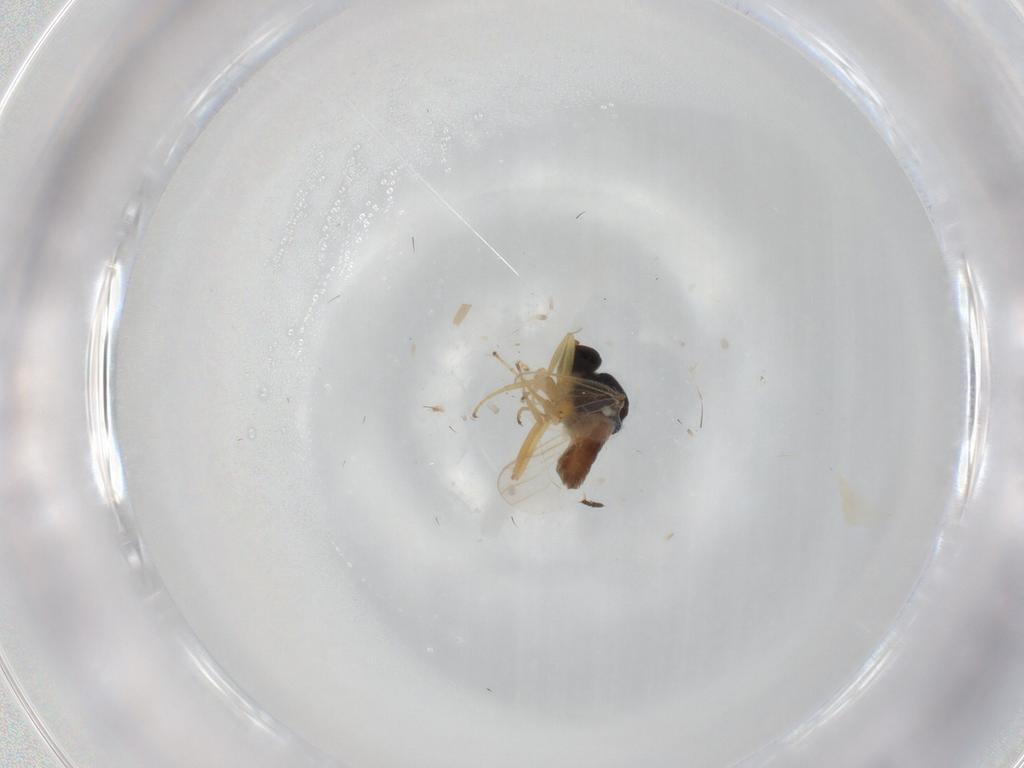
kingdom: Animalia
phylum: Arthropoda
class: Insecta
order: Diptera
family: Hybotidae
